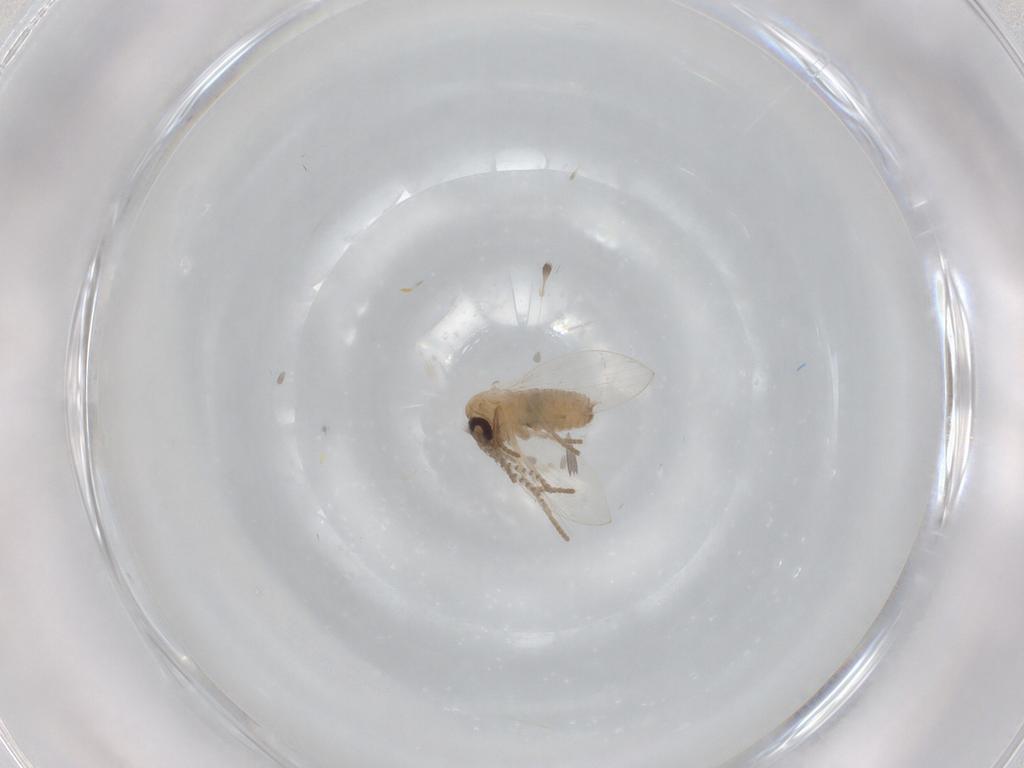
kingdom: Animalia
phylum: Arthropoda
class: Insecta
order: Diptera
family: Psychodidae
